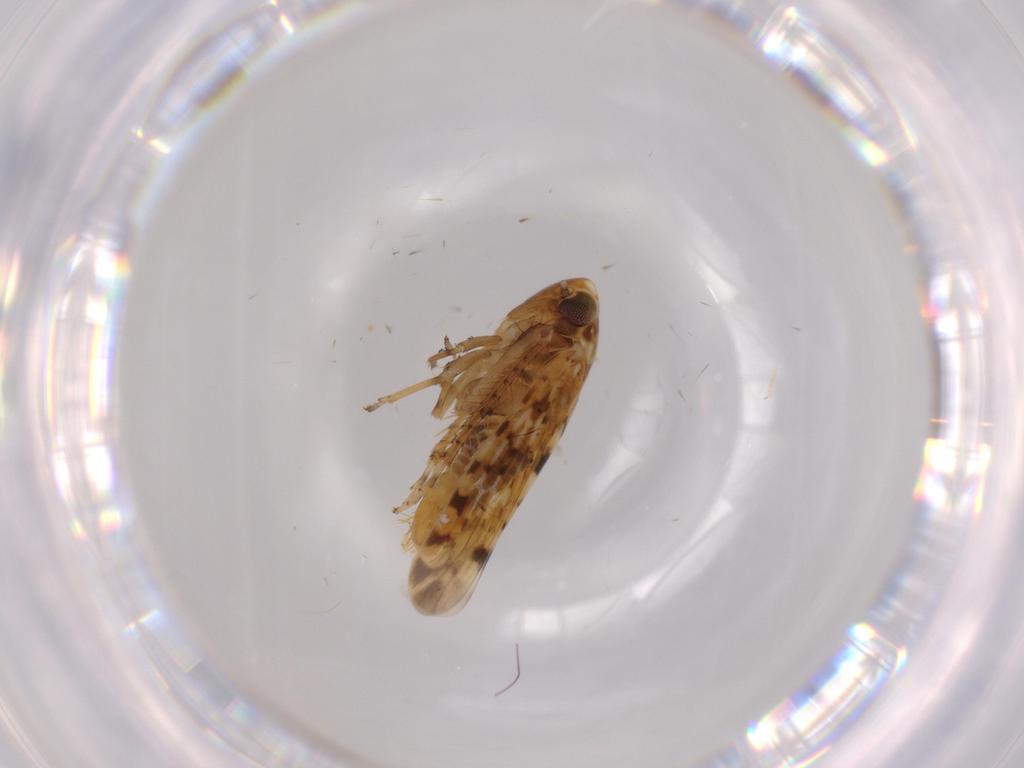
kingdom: Animalia
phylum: Arthropoda
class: Insecta
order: Hemiptera
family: Cicadellidae
